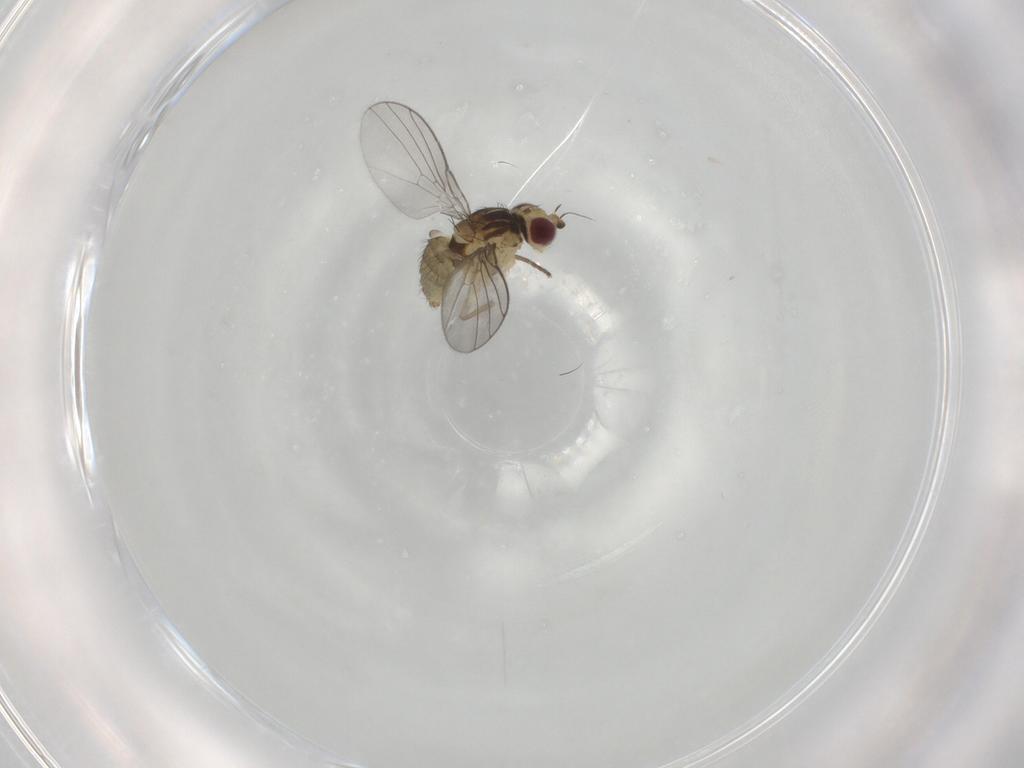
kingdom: Animalia
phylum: Arthropoda
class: Insecta
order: Diptera
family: Agromyzidae
